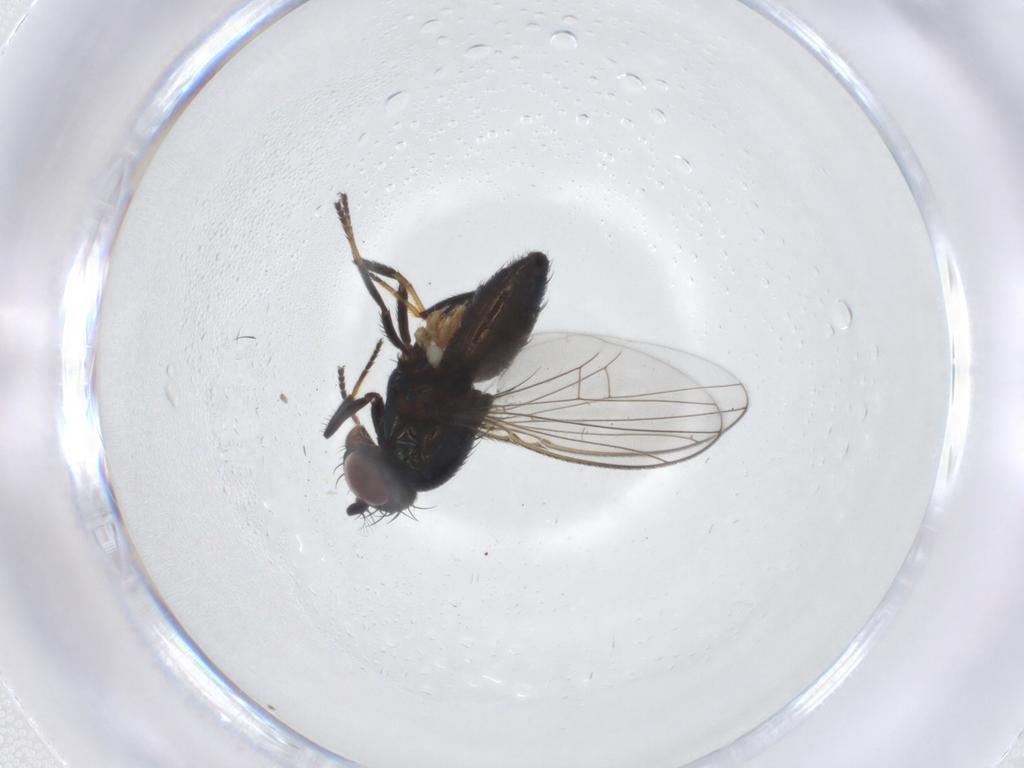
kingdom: Animalia
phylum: Arthropoda
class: Insecta
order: Diptera
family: Ephydridae
